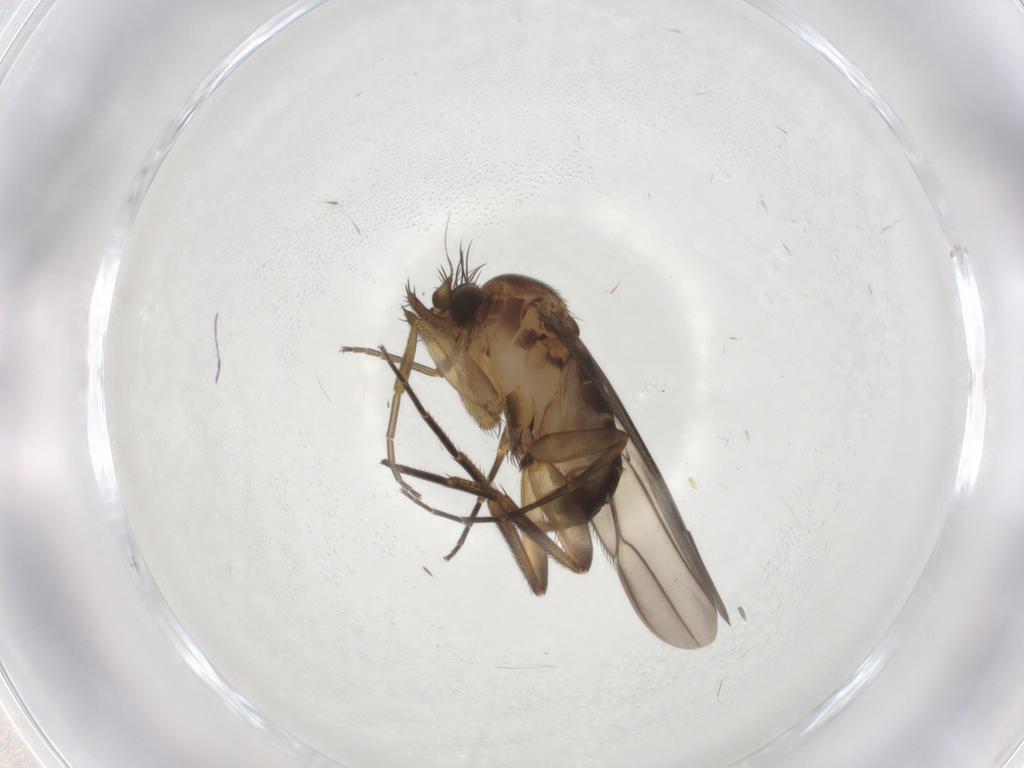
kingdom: Animalia
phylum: Arthropoda
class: Insecta
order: Diptera
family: Phoridae
